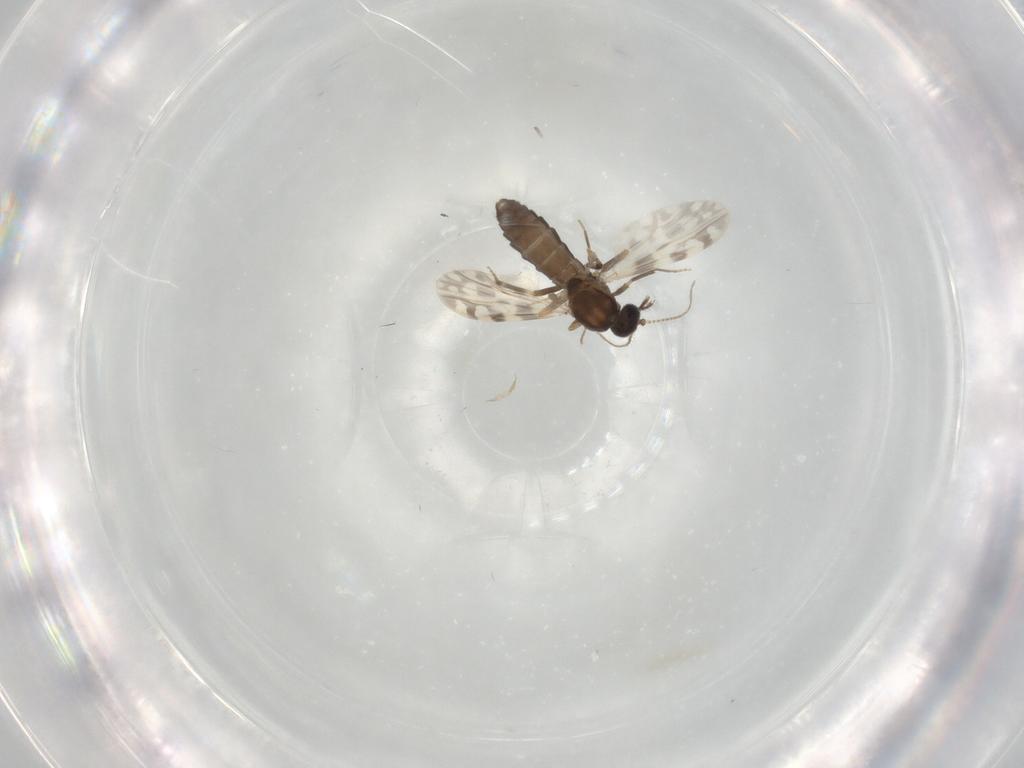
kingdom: Animalia
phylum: Arthropoda
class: Insecta
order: Diptera
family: Ceratopogonidae
